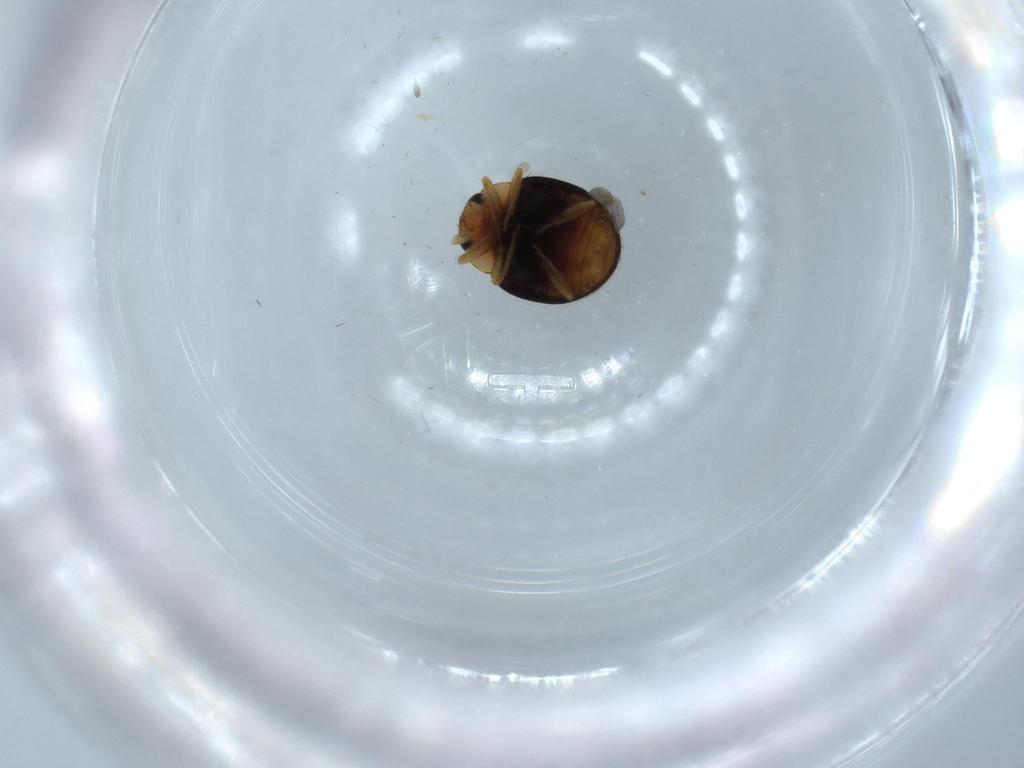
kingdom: Animalia
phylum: Arthropoda
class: Insecta
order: Coleoptera
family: Coccinellidae
